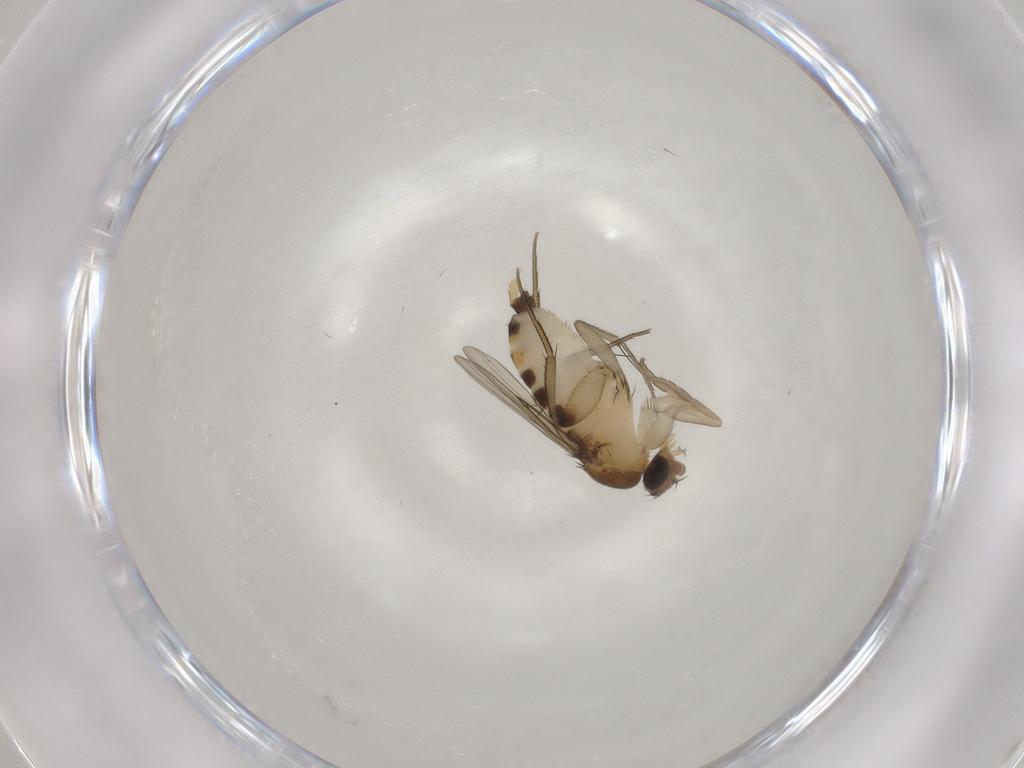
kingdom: Animalia
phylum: Arthropoda
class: Insecta
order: Diptera
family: Phoridae
